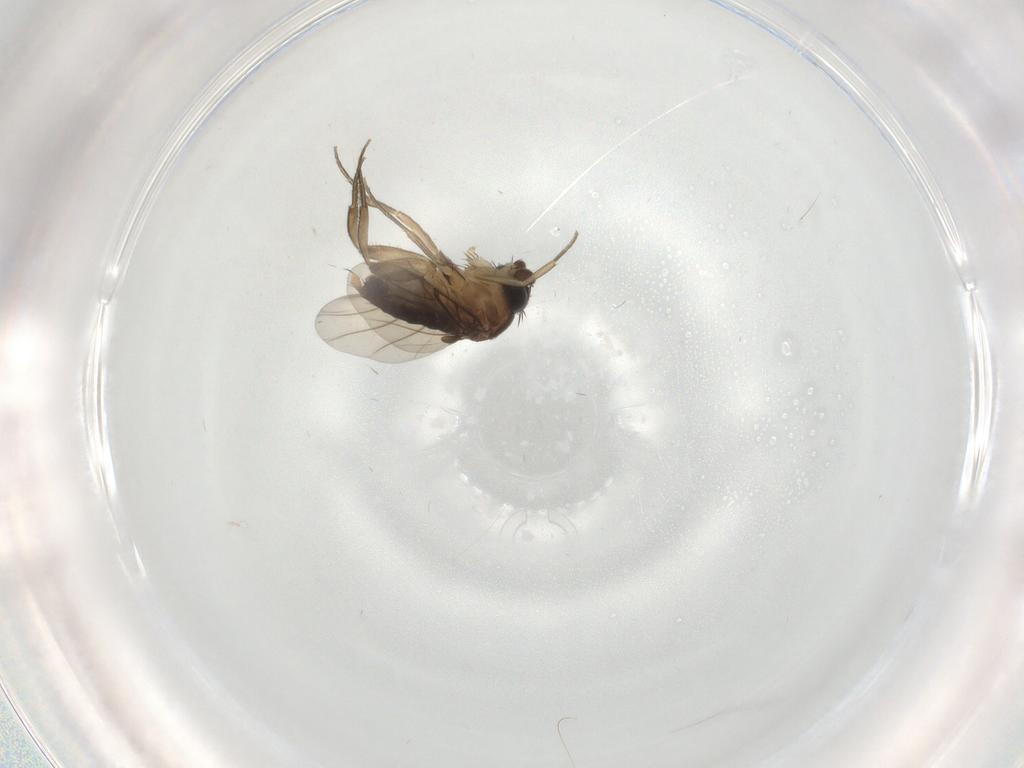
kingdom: Animalia
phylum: Arthropoda
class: Insecta
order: Diptera
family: Phoridae
